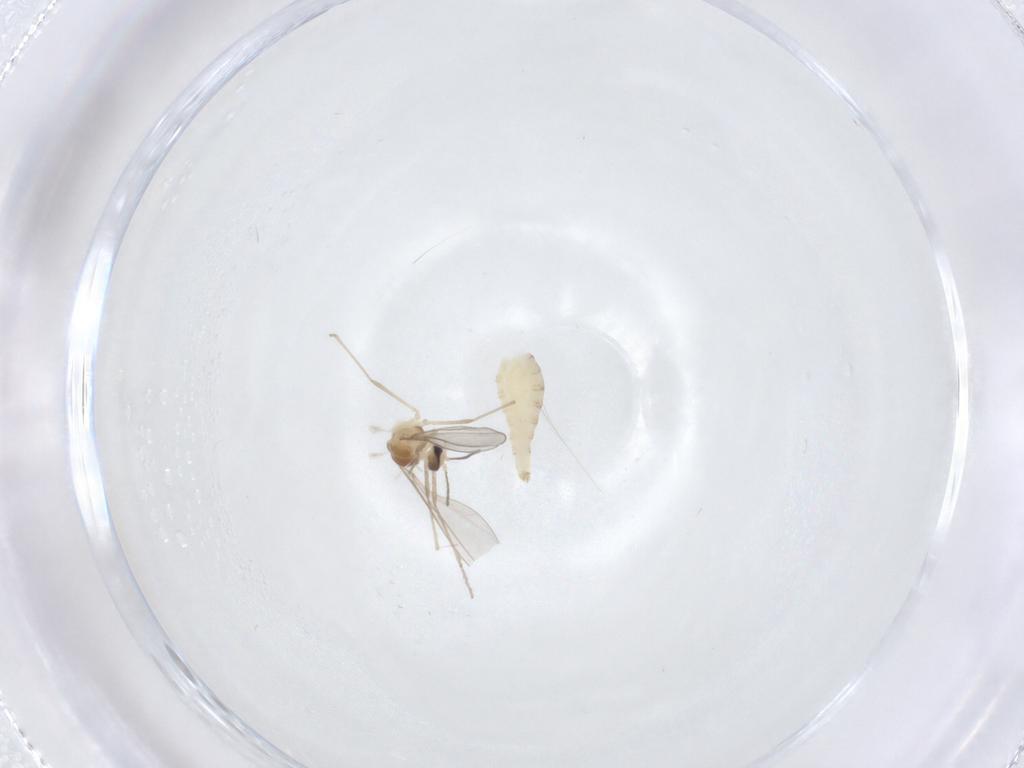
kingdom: Animalia
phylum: Arthropoda
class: Insecta
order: Diptera
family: Cecidomyiidae
